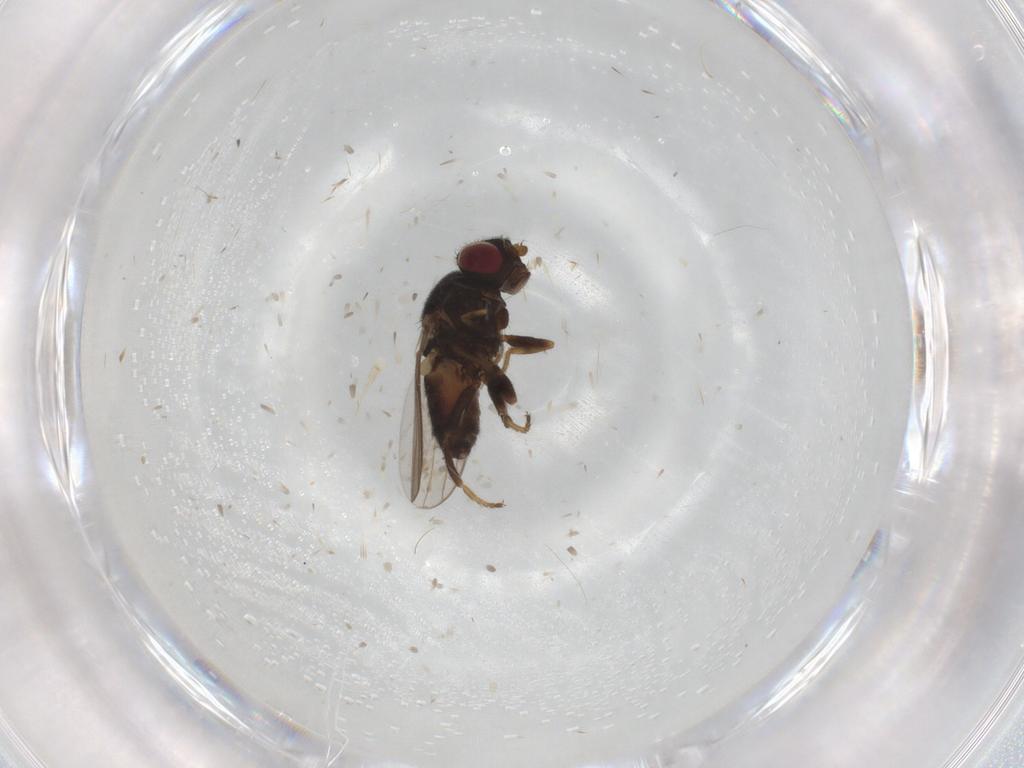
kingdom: Animalia
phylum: Arthropoda
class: Insecta
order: Diptera
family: Chloropidae
